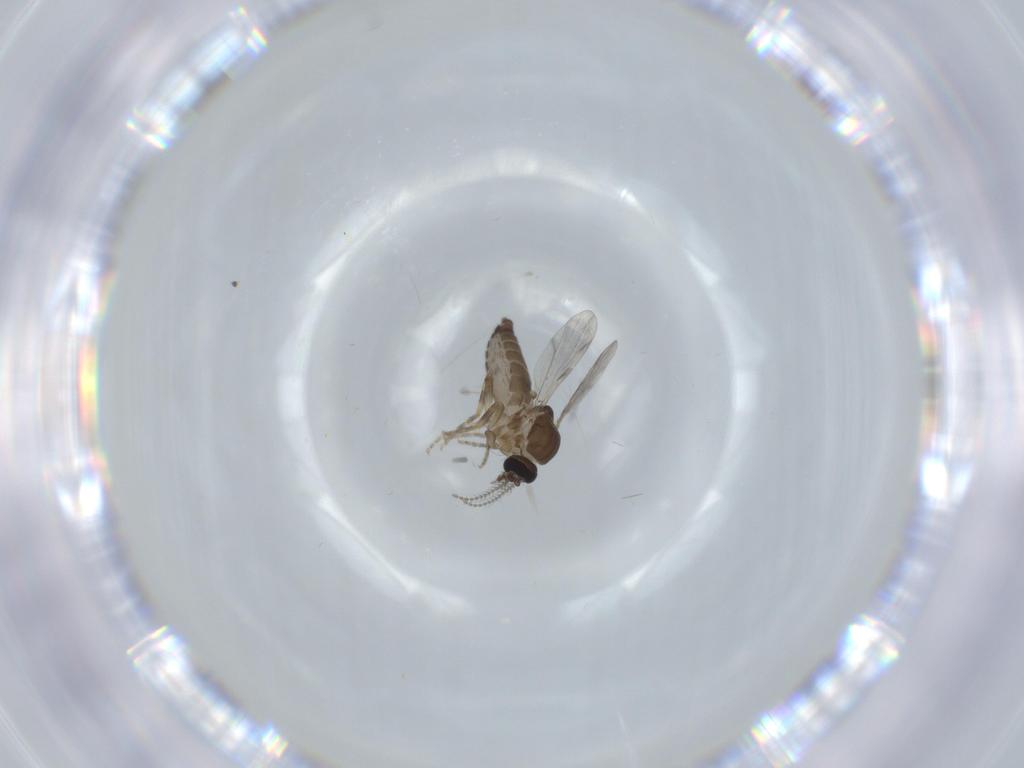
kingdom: Animalia
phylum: Arthropoda
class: Insecta
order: Diptera
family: Ceratopogonidae
